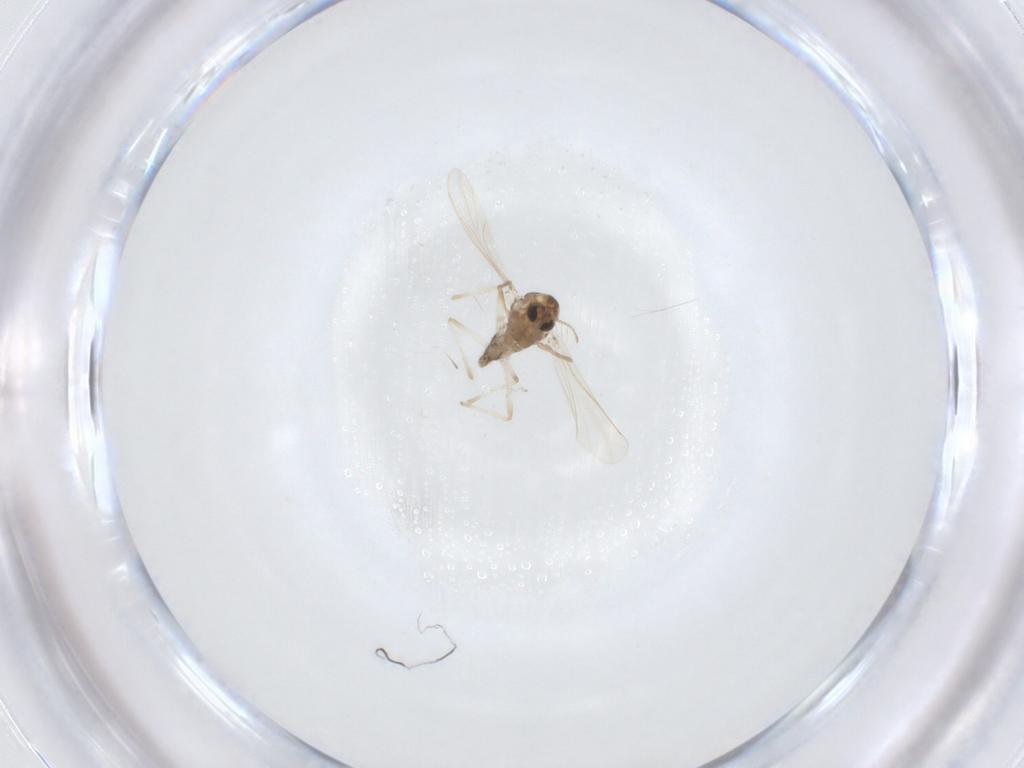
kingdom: Animalia
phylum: Arthropoda
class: Insecta
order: Diptera
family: Chironomidae
